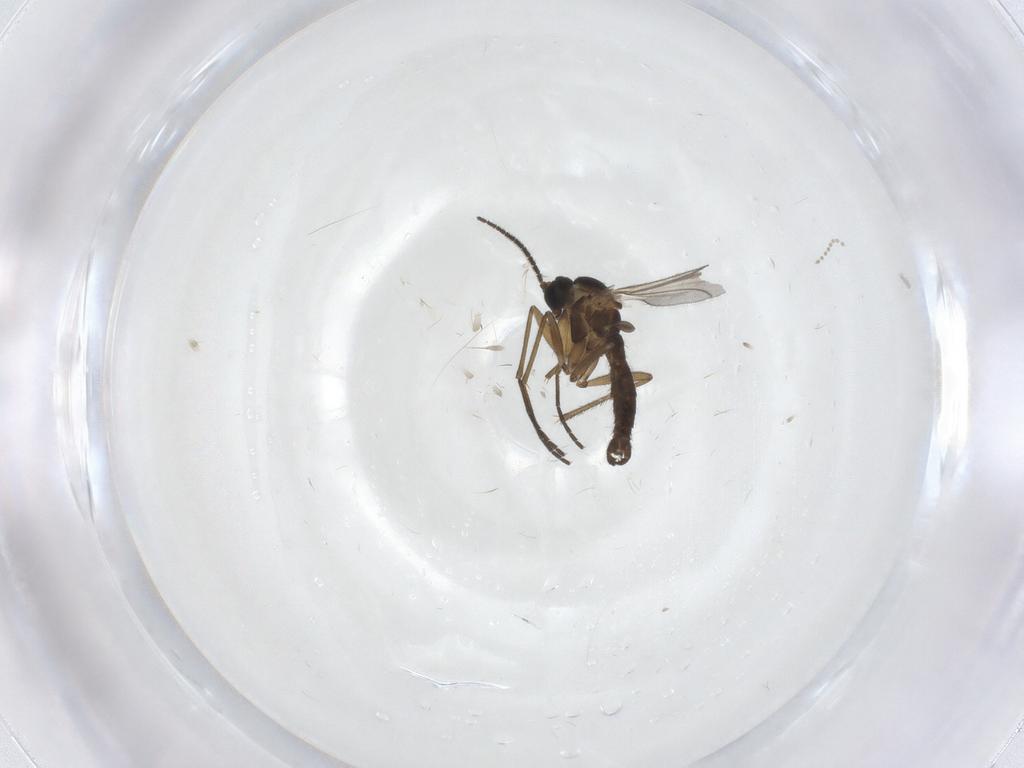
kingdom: Animalia
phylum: Arthropoda
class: Insecta
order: Diptera
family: Sciaridae
